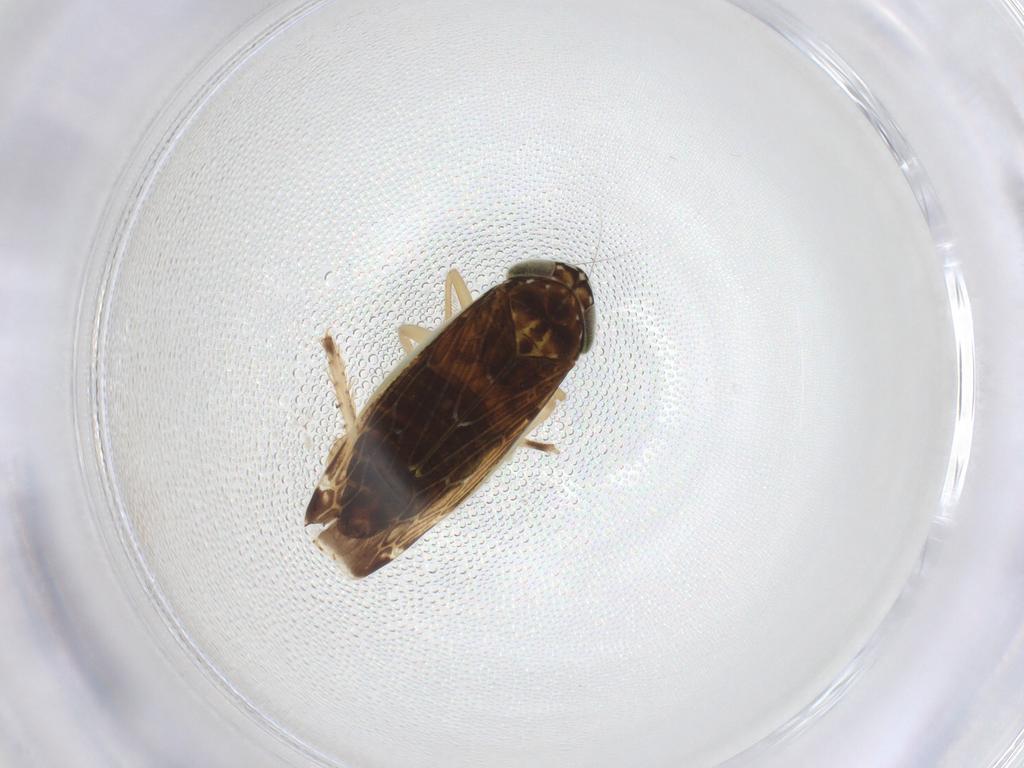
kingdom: Animalia
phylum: Arthropoda
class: Insecta
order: Hemiptera
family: Cicadellidae
